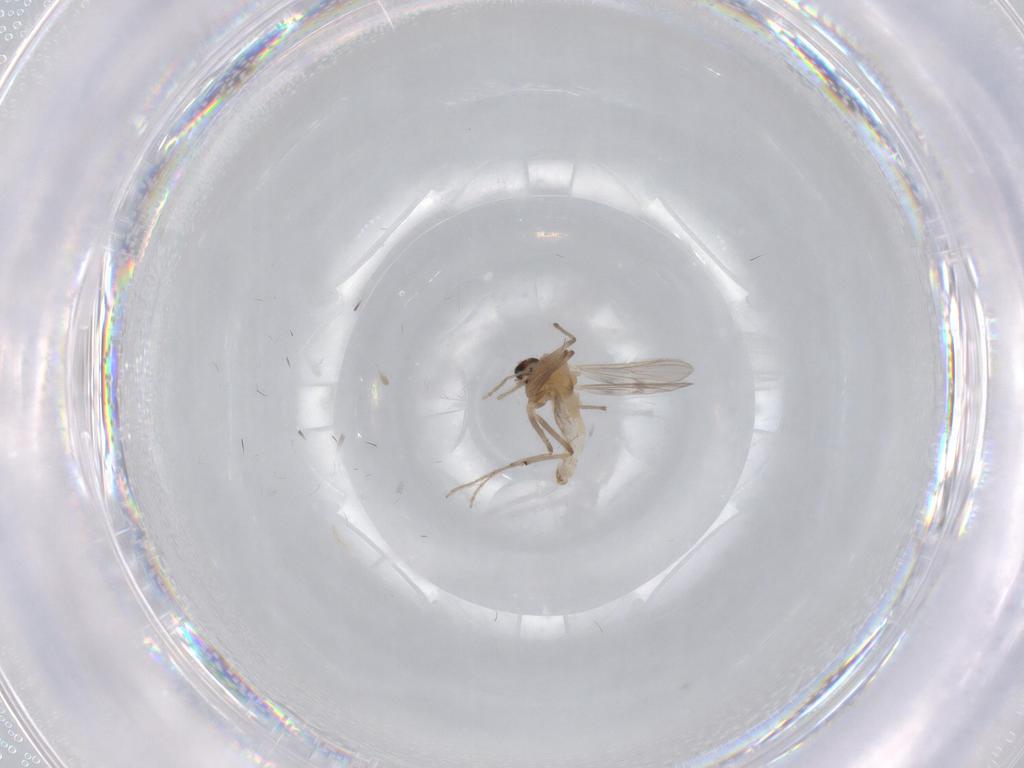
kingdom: Animalia
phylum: Arthropoda
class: Insecta
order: Diptera
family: Chironomidae
